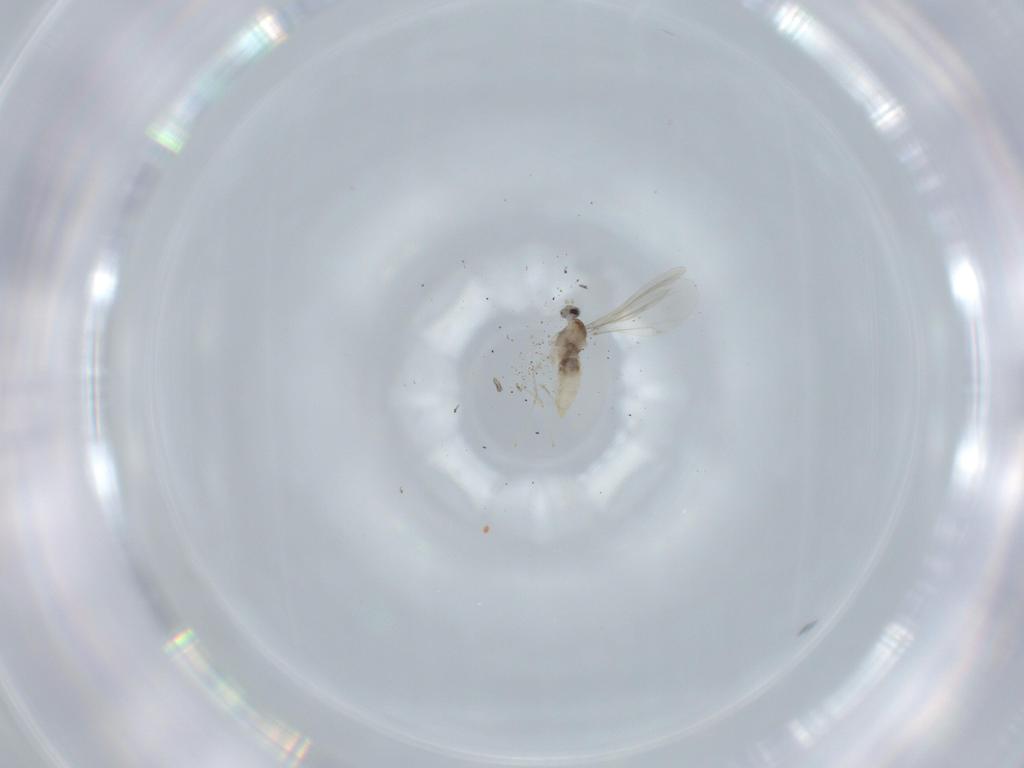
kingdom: Animalia
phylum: Arthropoda
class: Insecta
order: Diptera
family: Cecidomyiidae
